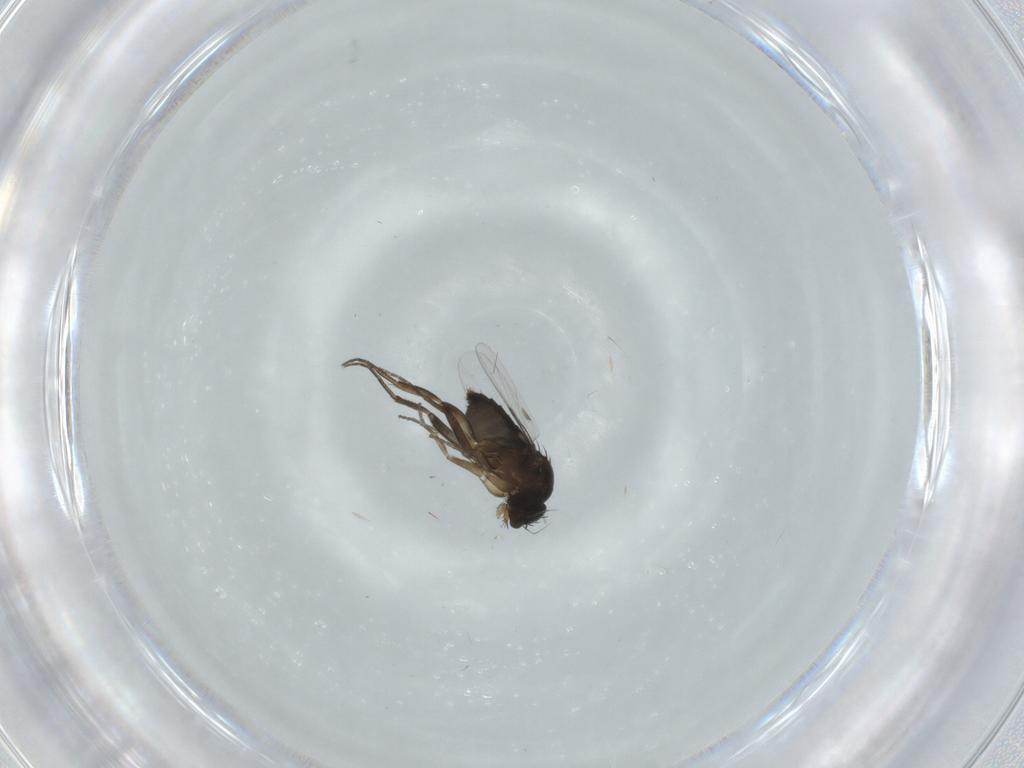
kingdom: Animalia
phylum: Arthropoda
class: Insecta
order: Diptera
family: Phoridae
